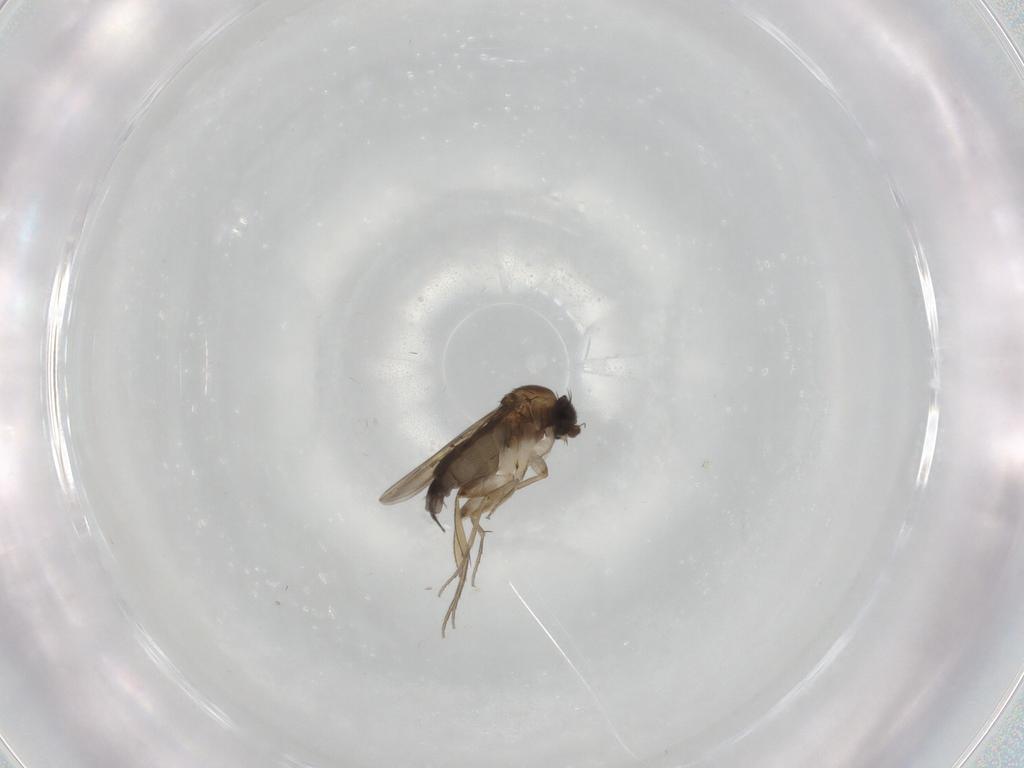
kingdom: Animalia
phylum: Arthropoda
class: Insecta
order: Diptera
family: Phoridae
